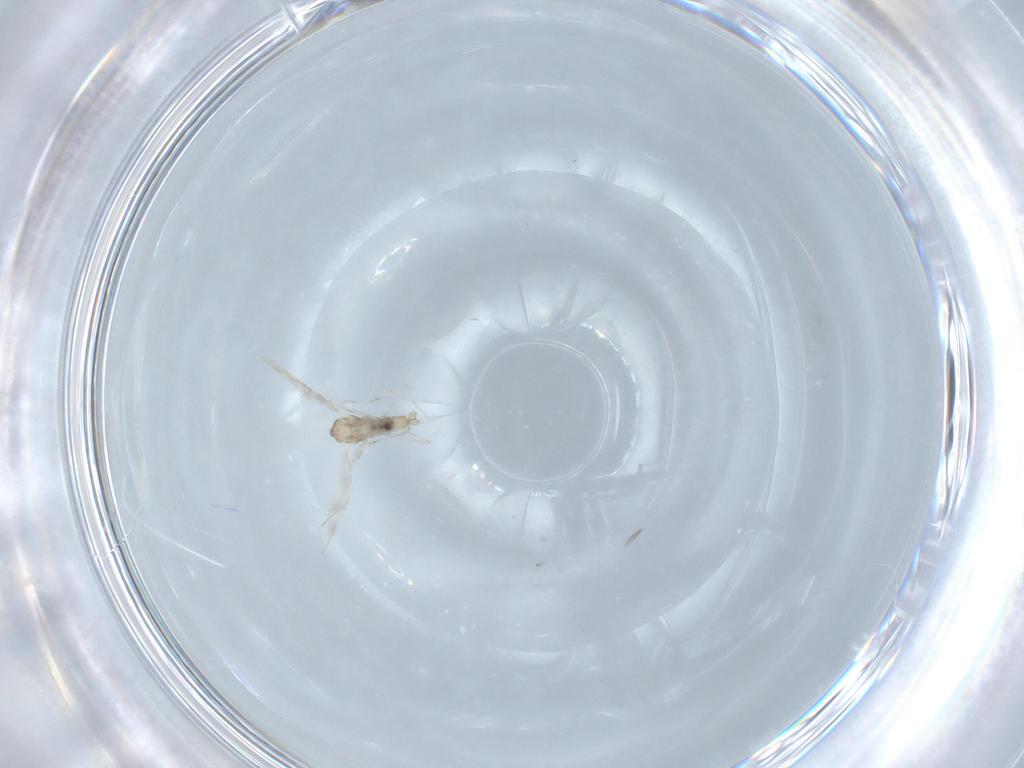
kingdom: Animalia
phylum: Arthropoda
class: Insecta
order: Diptera
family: Cecidomyiidae
